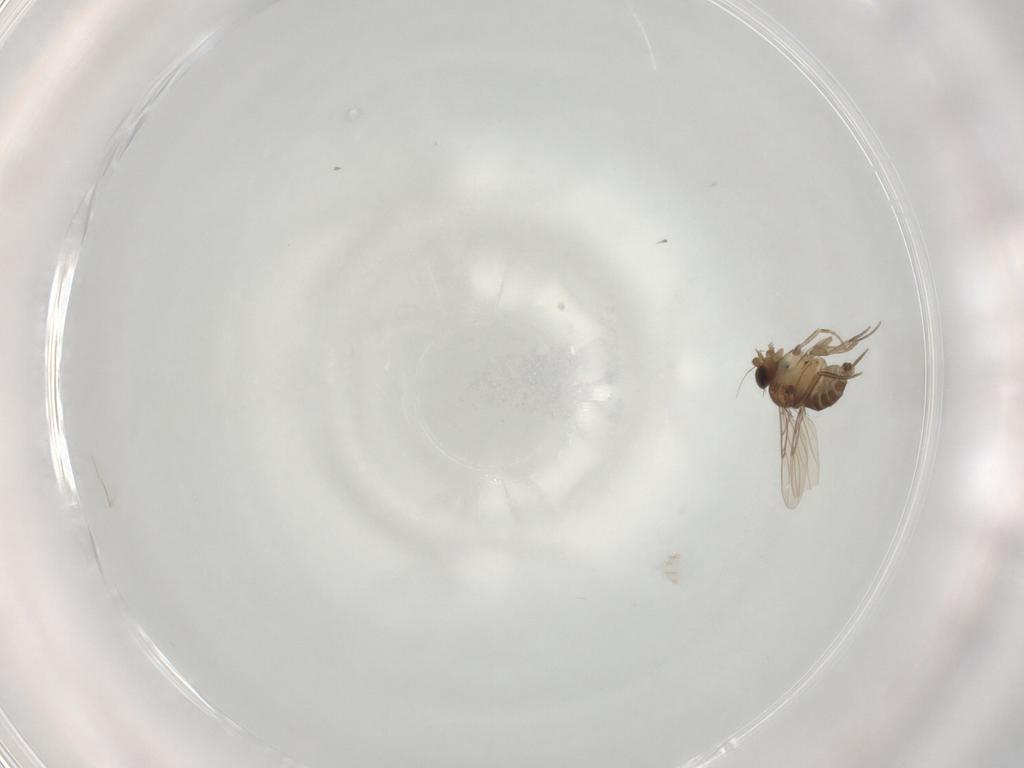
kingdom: Animalia
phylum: Arthropoda
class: Insecta
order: Diptera
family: Phoridae
